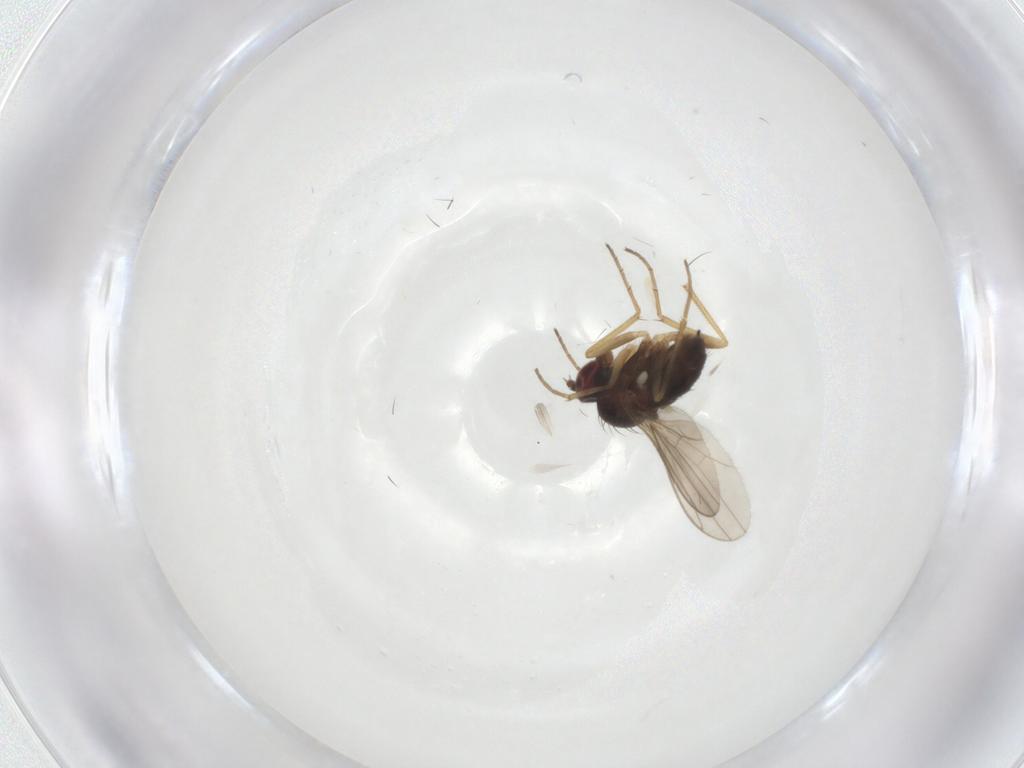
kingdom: Animalia
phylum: Arthropoda
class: Insecta
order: Diptera
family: Dolichopodidae
